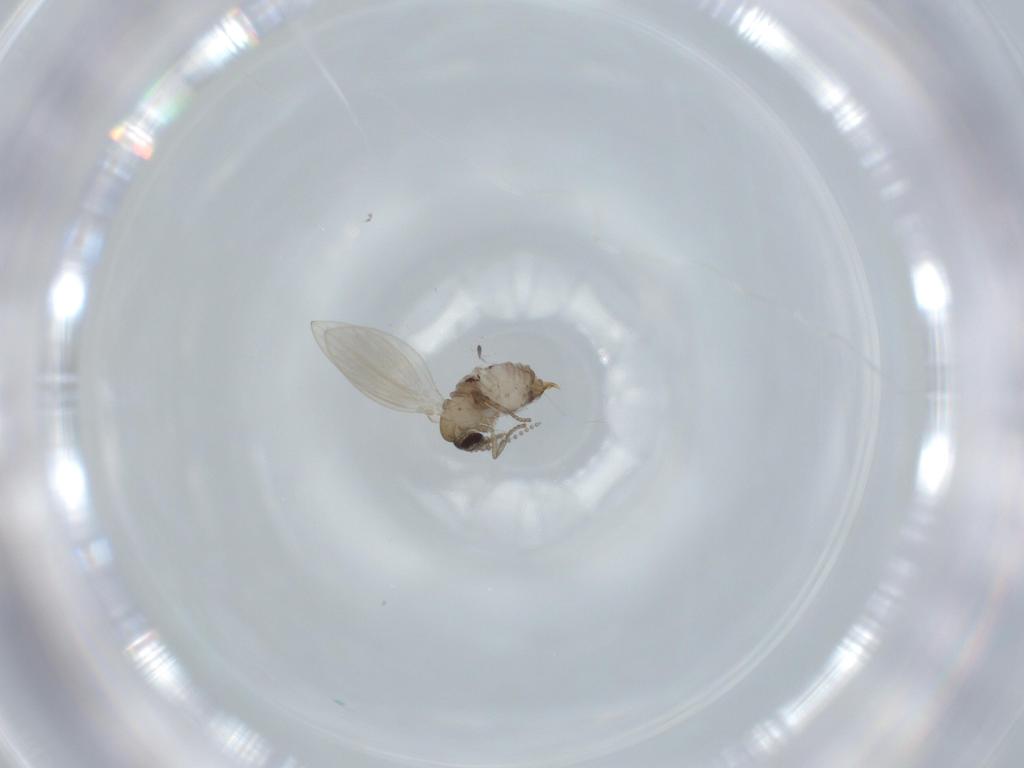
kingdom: Animalia
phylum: Arthropoda
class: Insecta
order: Diptera
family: Psychodidae
